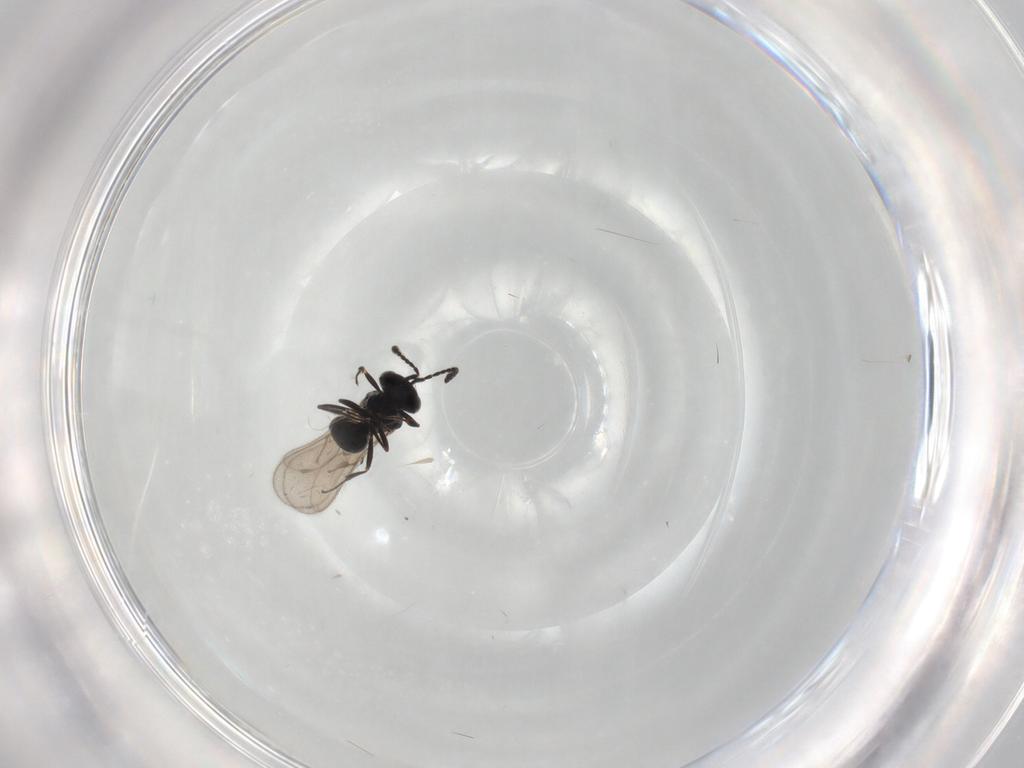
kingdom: Animalia
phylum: Arthropoda
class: Insecta
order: Hymenoptera
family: Scelionidae
